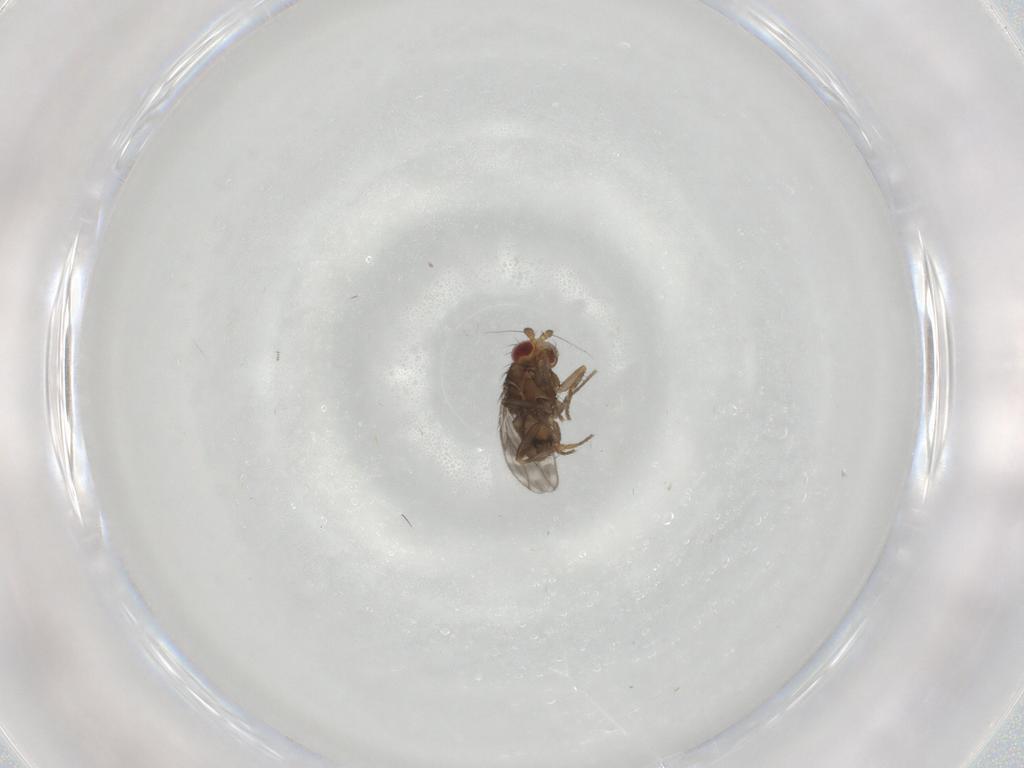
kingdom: Animalia
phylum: Arthropoda
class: Insecta
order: Diptera
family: Sphaeroceridae
